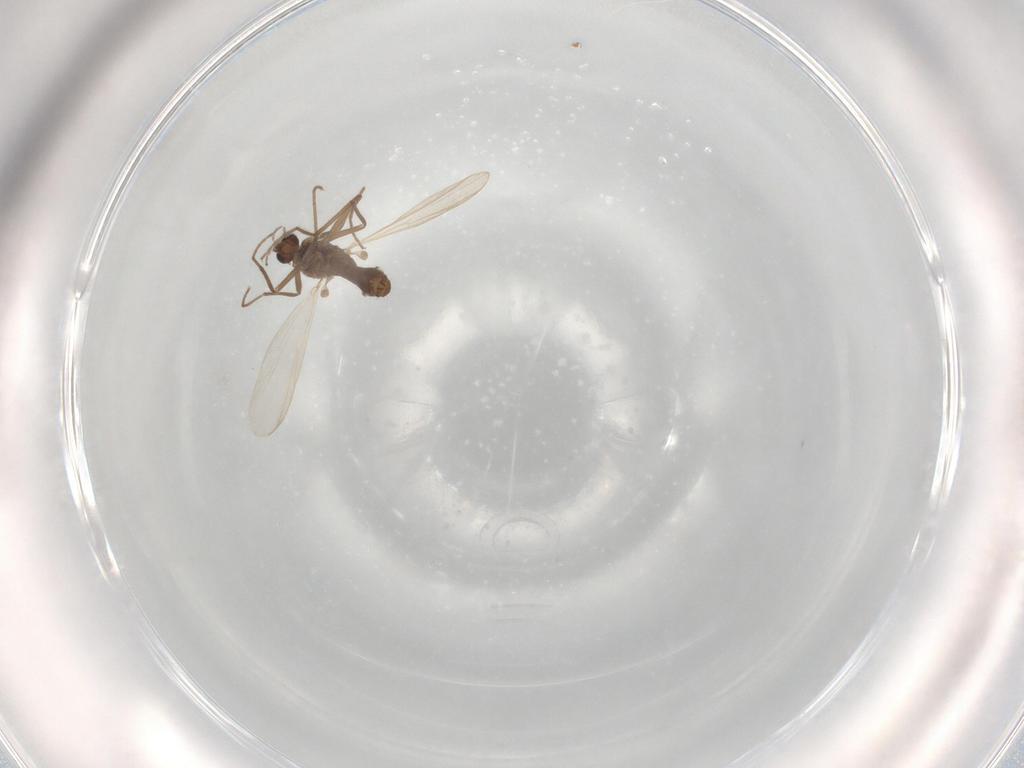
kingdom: Animalia
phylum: Arthropoda
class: Insecta
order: Diptera
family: Chironomidae
